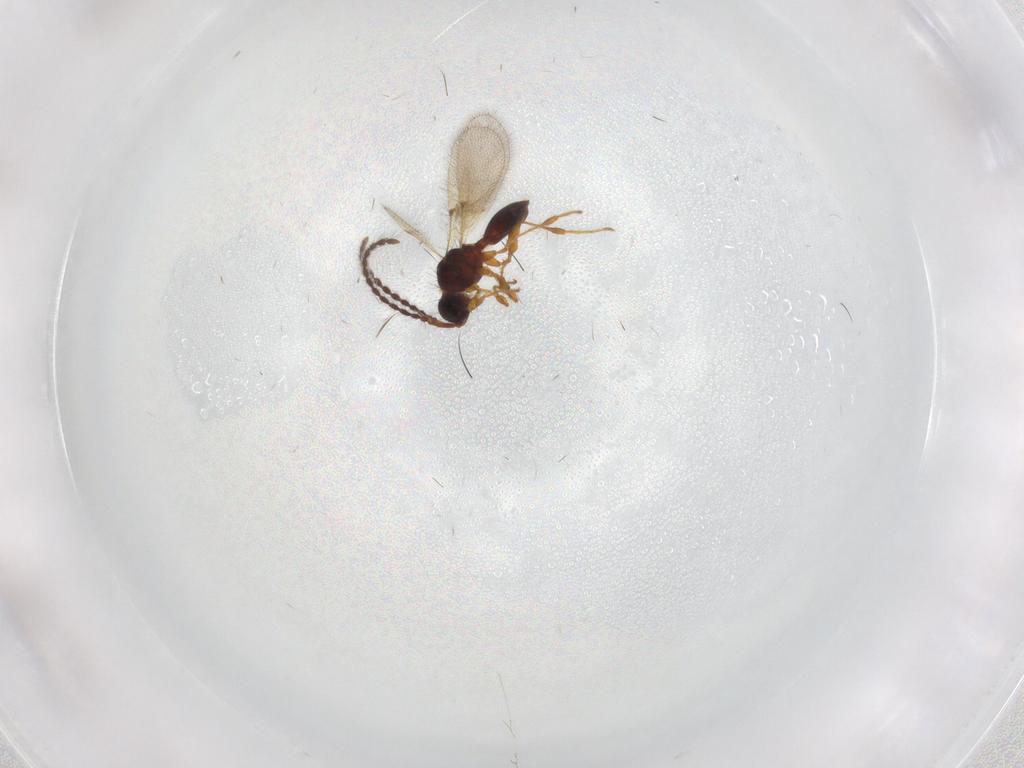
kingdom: Animalia
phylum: Arthropoda
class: Insecta
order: Hymenoptera
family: Diapriidae
